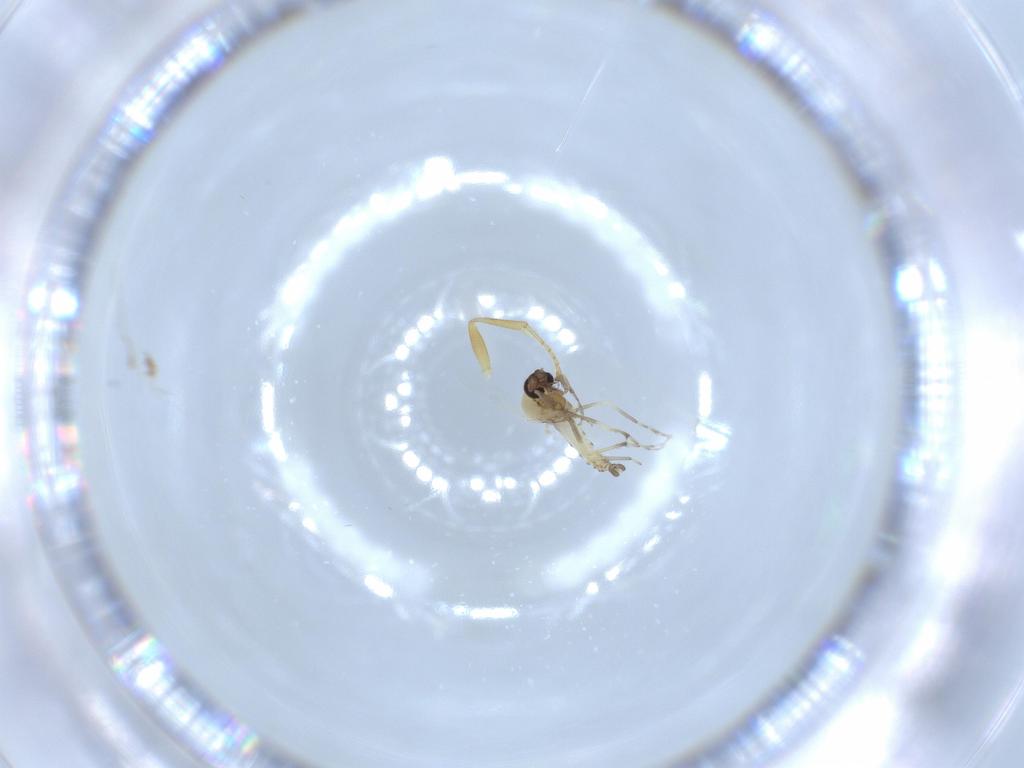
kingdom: Animalia
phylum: Arthropoda
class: Insecta
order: Diptera
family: Ceratopogonidae
